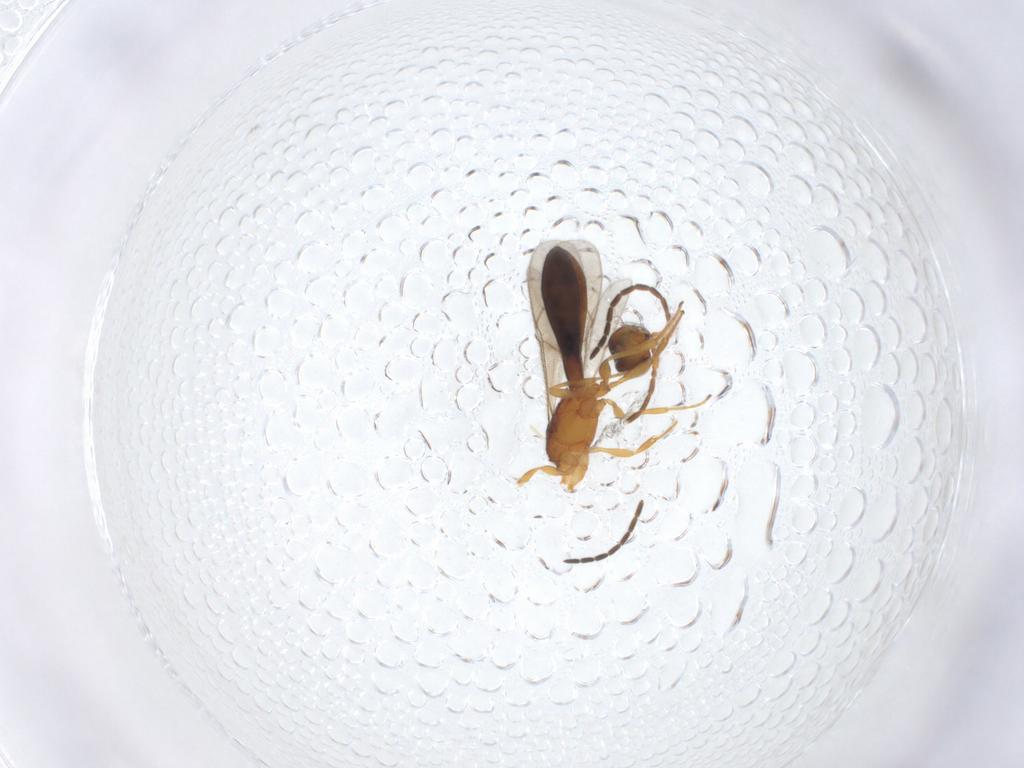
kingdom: Animalia
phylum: Arthropoda
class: Insecta
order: Hymenoptera
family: Scelionidae
